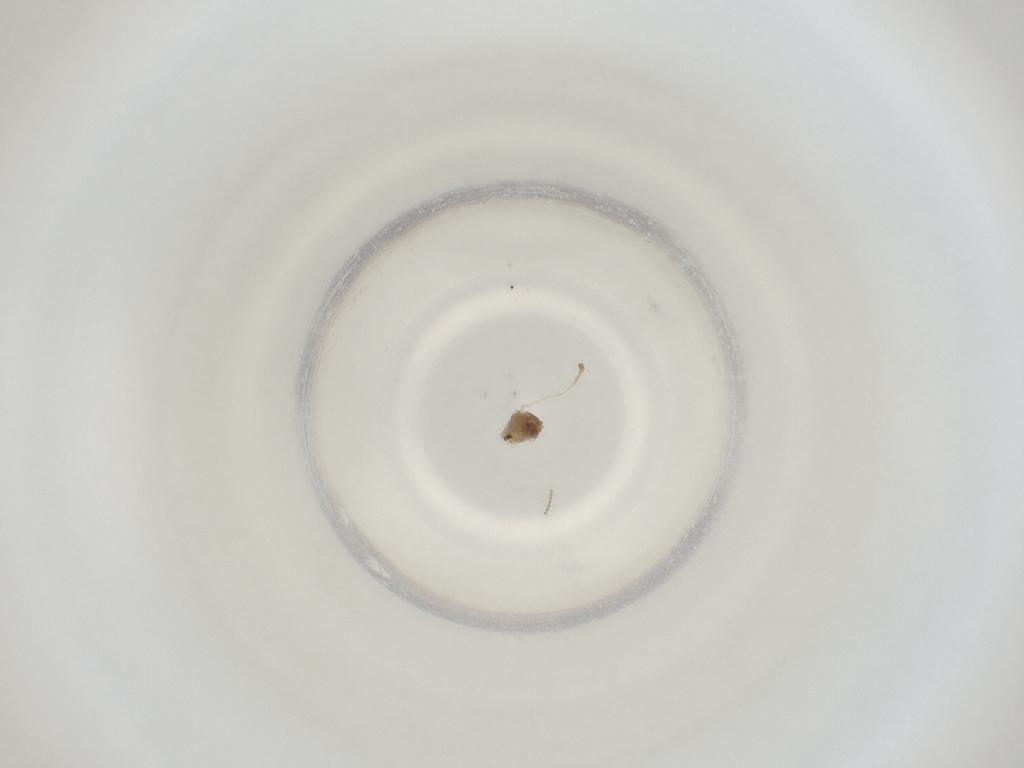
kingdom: Animalia
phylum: Arthropoda
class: Insecta
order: Diptera
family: Cecidomyiidae
